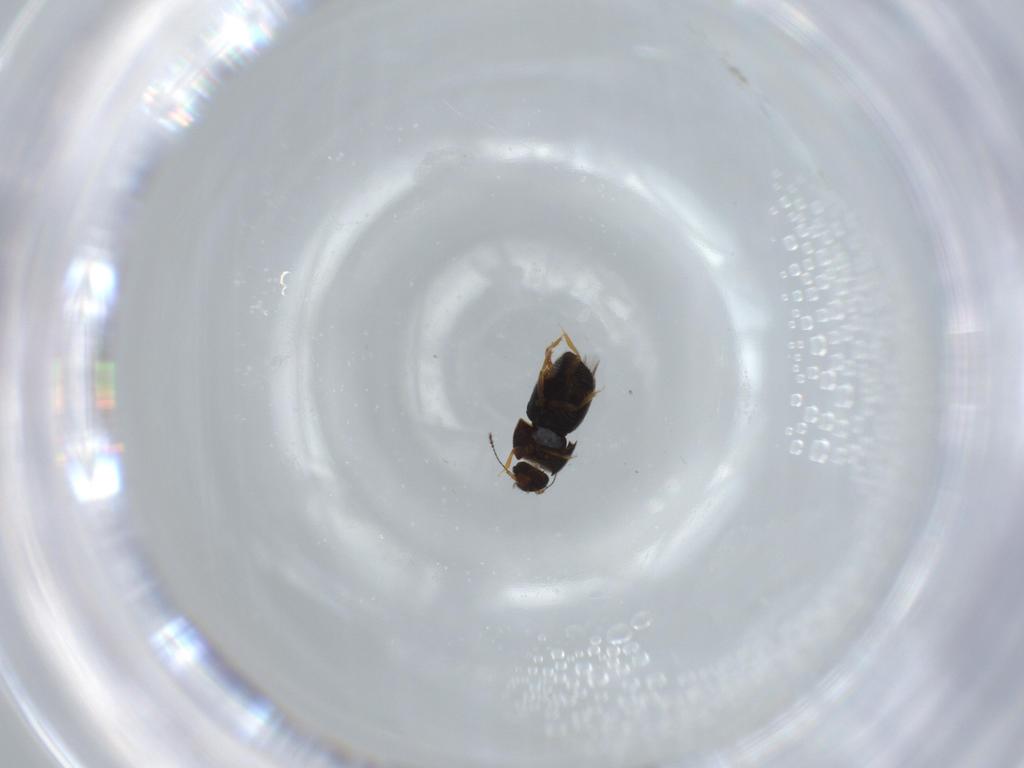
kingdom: Animalia
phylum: Arthropoda
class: Insecta
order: Coleoptera
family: Ptiliidae
